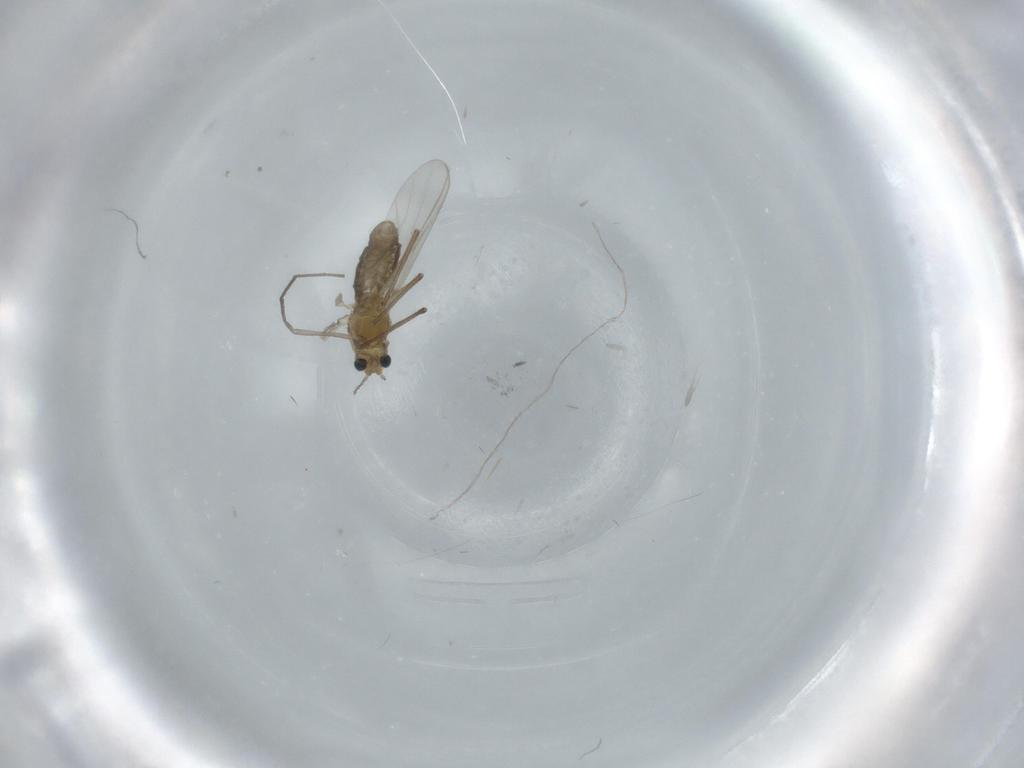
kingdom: Animalia
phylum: Arthropoda
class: Insecta
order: Diptera
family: Chironomidae
